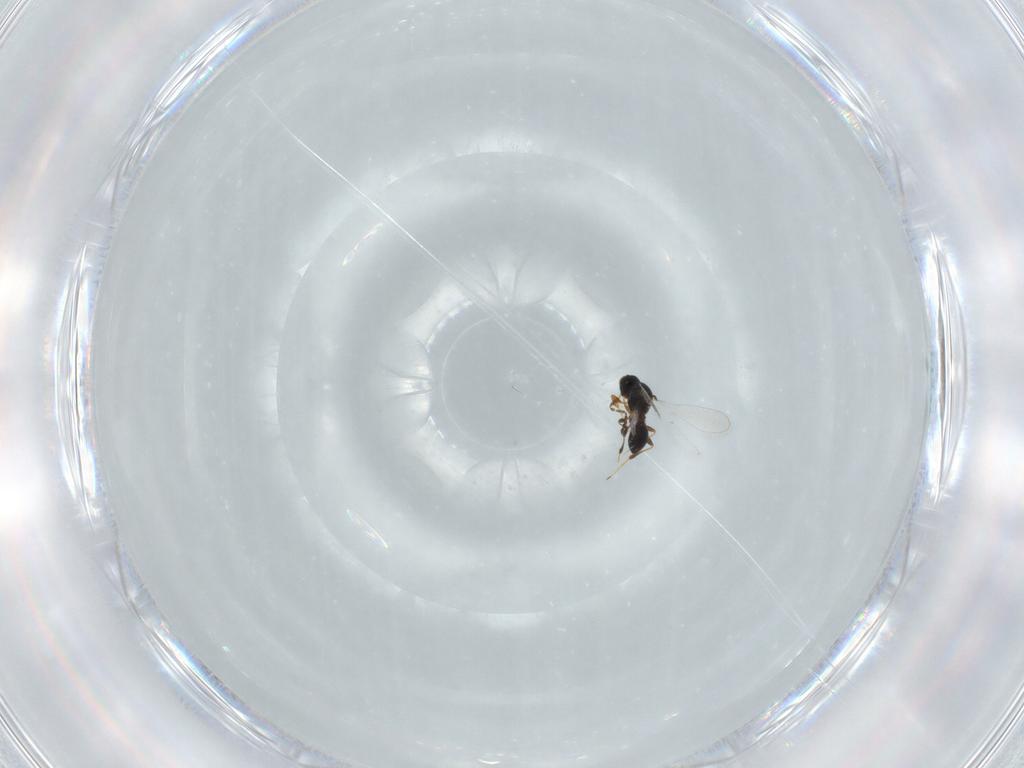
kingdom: Animalia
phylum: Arthropoda
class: Insecta
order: Hymenoptera
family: Platygastridae
